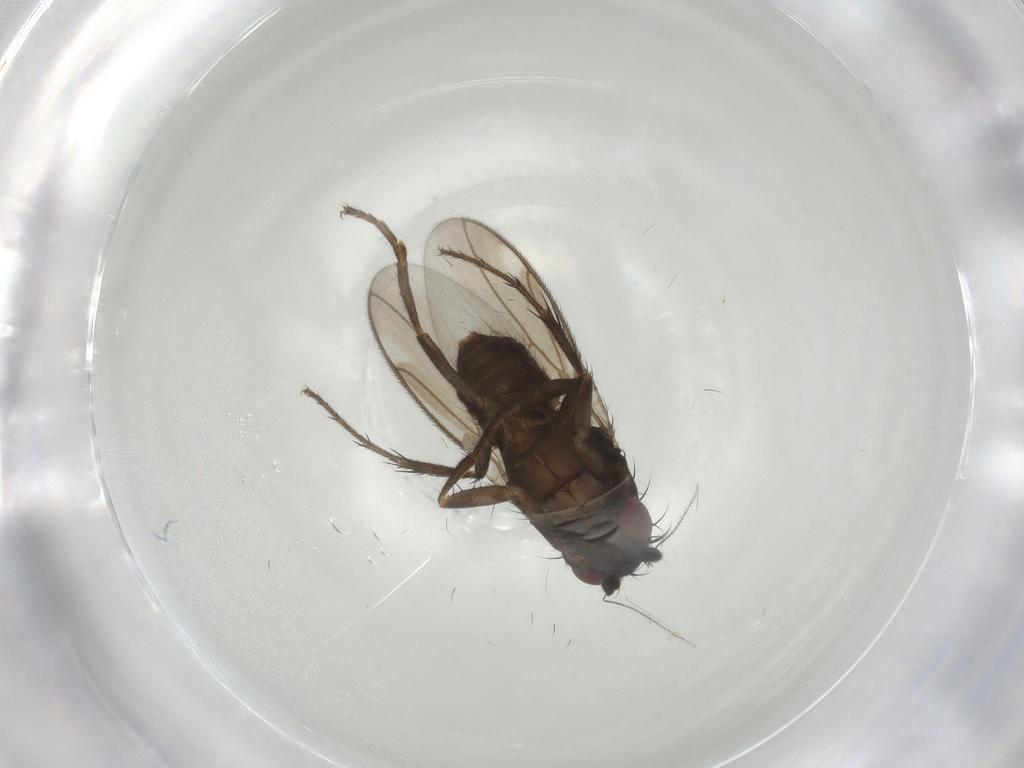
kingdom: Animalia
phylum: Arthropoda
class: Insecta
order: Diptera
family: Sphaeroceridae
